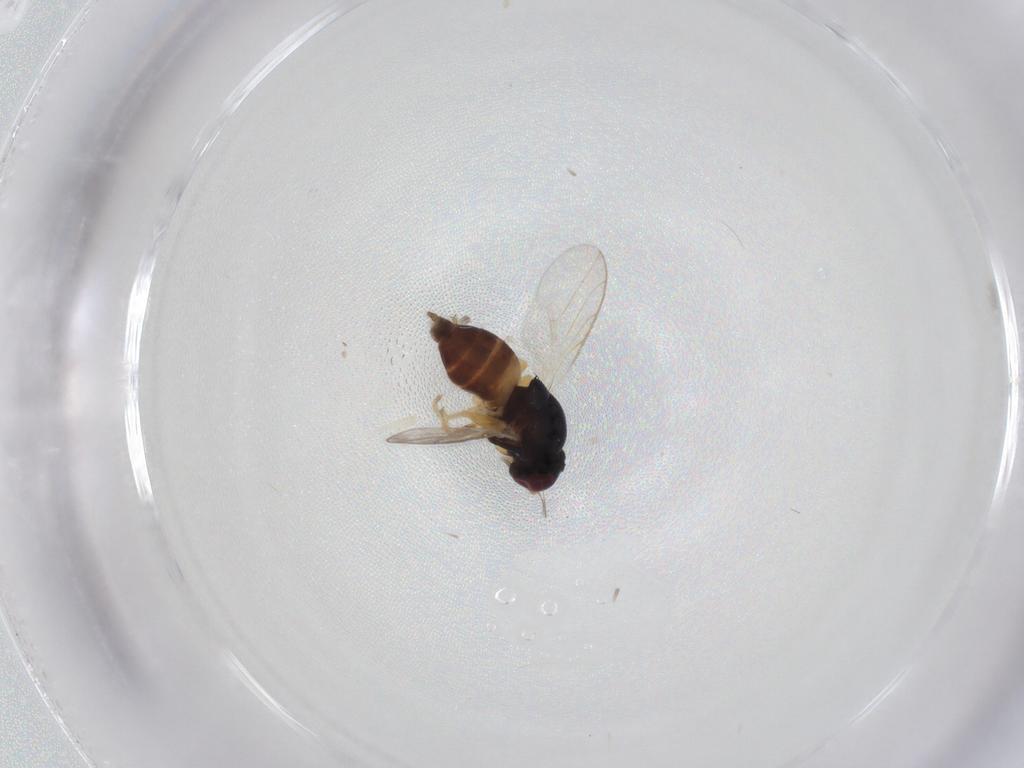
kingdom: Animalia
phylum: Arthropoda
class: Insecta
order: Diptera
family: Chloropidae
